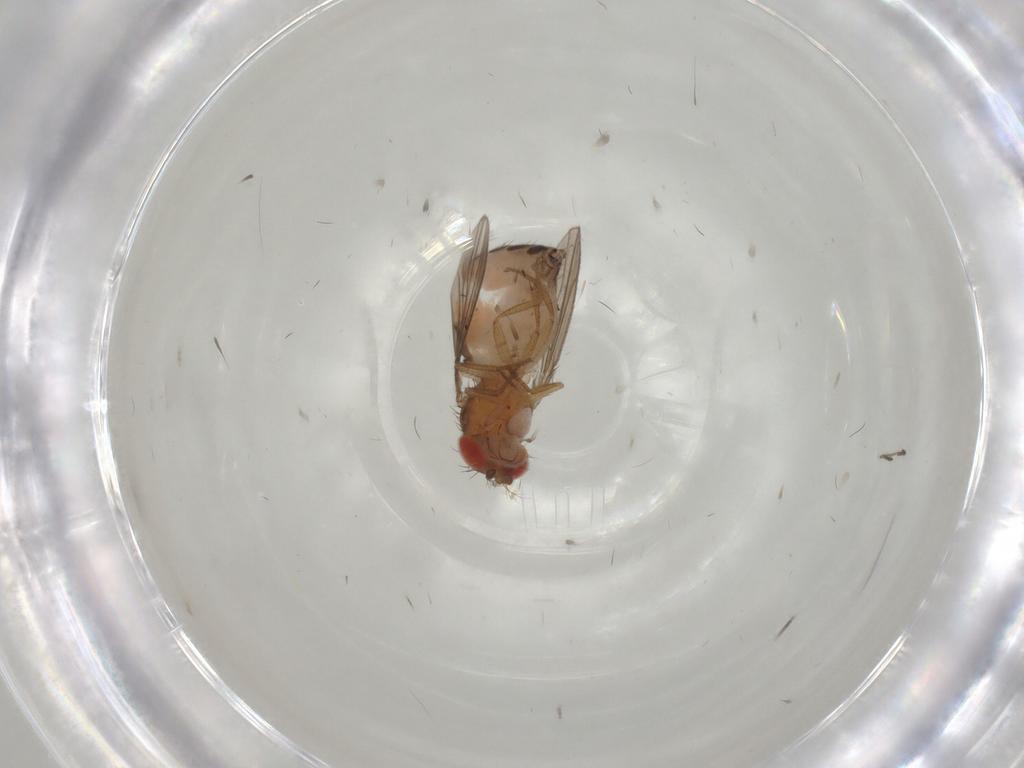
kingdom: Animalia
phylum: Arthropoda
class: Insecta
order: Diptera
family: Drosophilidae
